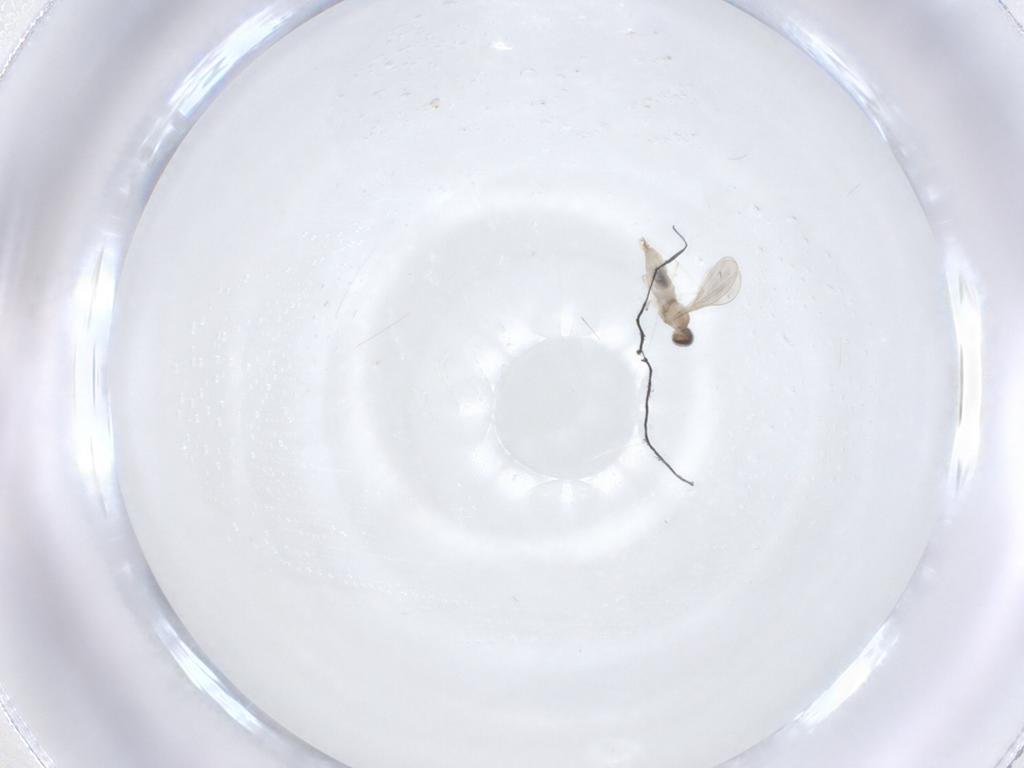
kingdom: Animalia
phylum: Arthropoda
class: Insecta
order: Diptera
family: Cecidomyiidae
